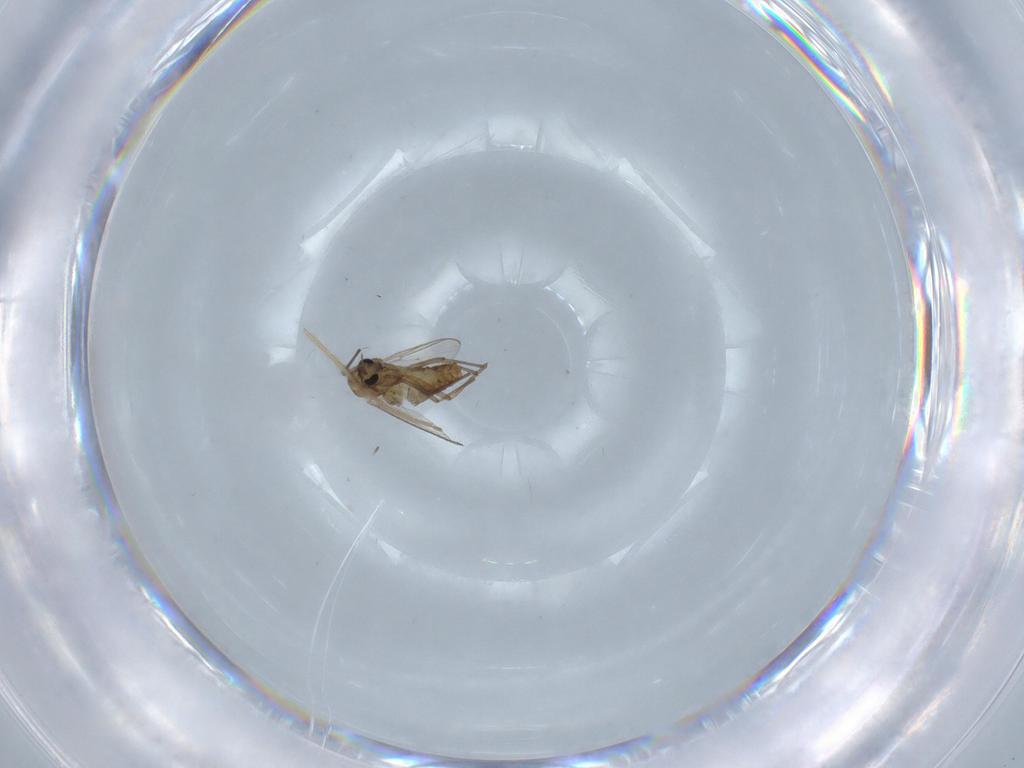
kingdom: Animalia
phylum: Arthropoda
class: Insecta
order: Diptera
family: Chironomidae
